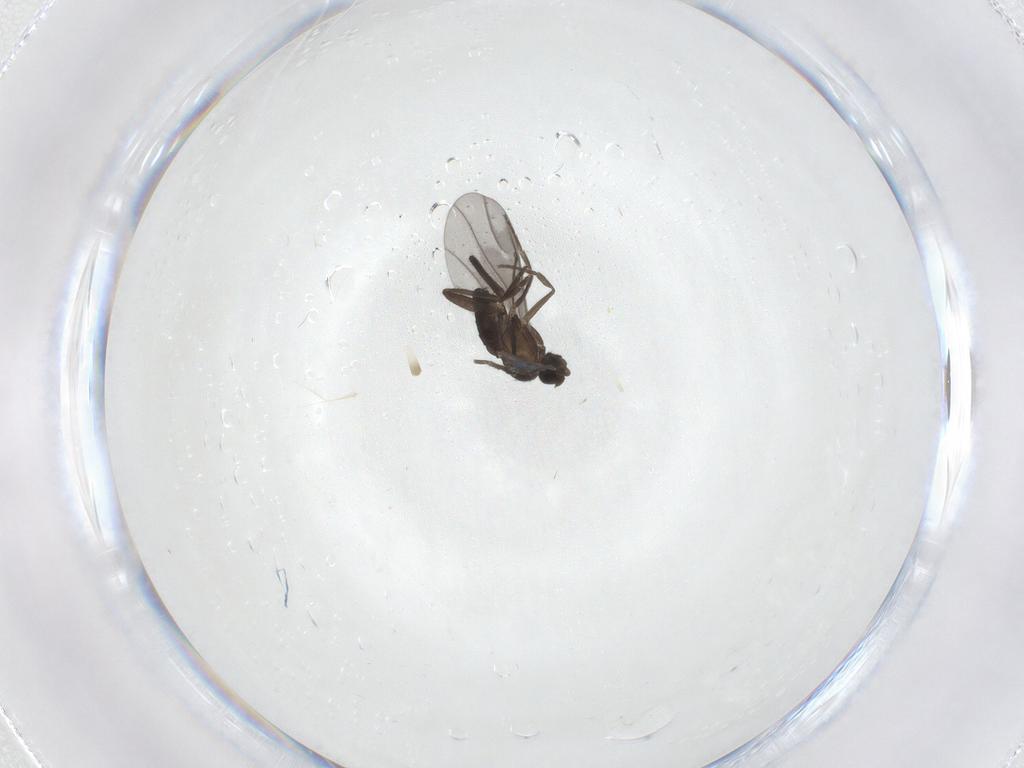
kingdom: Animalia
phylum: Arthropoda
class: Insecta
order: Diptera
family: Phoridae
